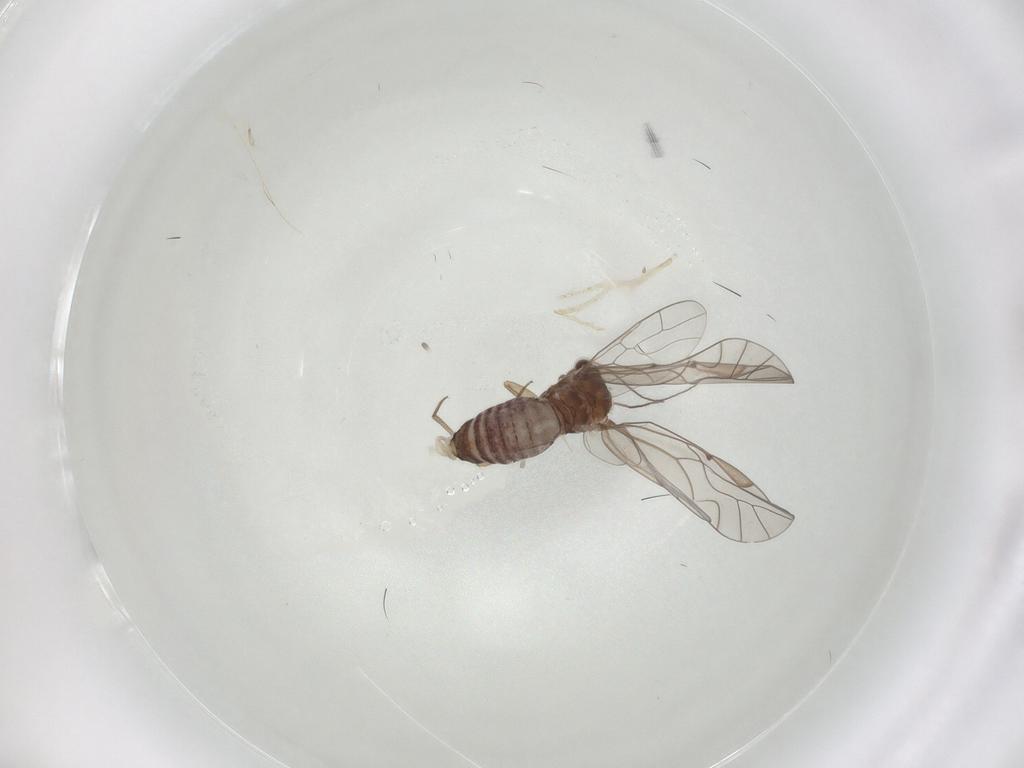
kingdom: Animalia
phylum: Arthropoda
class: Insecta
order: Psocodea
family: Lachesillidae
